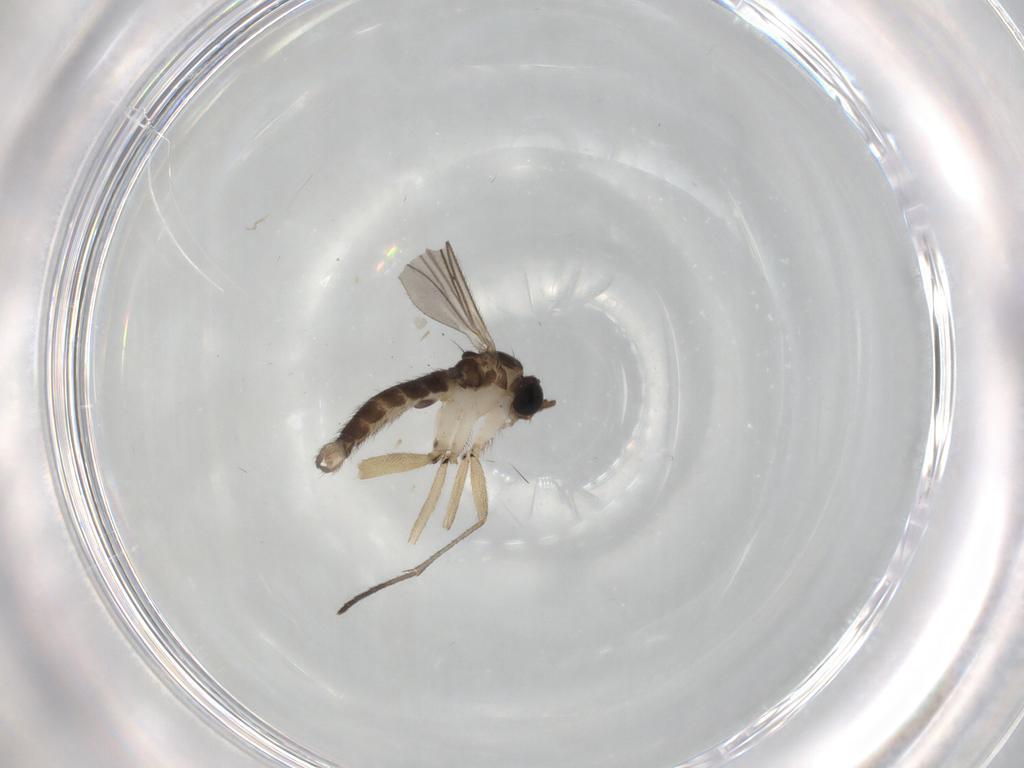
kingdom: Animalia
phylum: Arthropoda
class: Insecta
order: Diptera
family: Sciaridae
